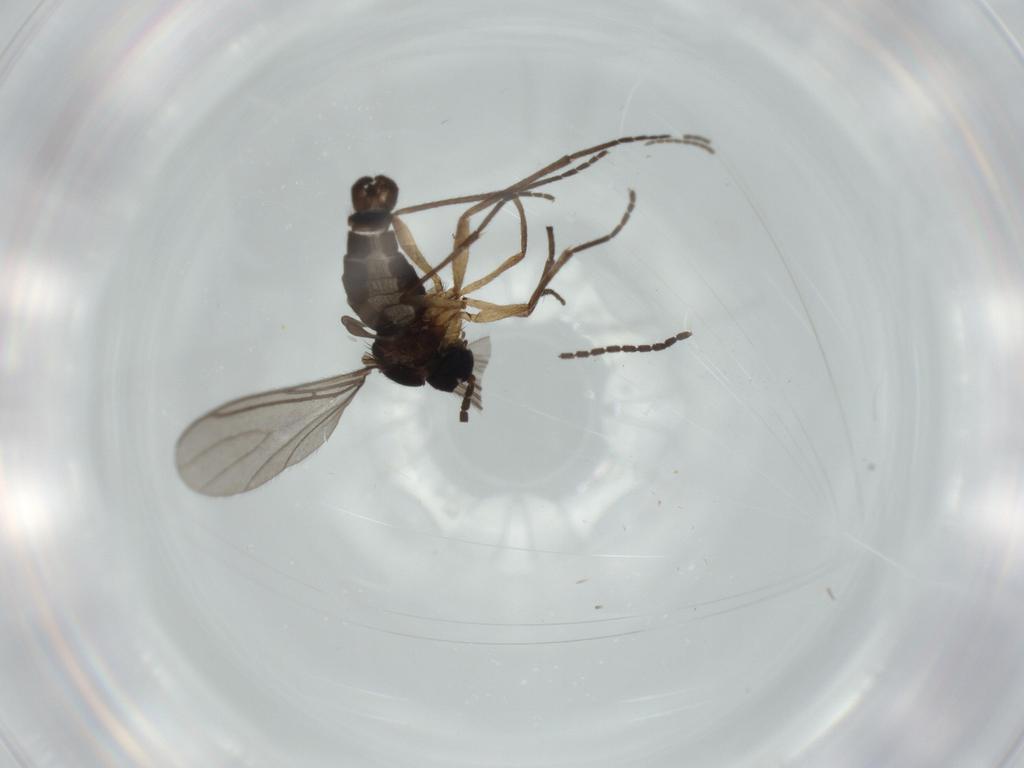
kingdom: Animalia
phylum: Arthropoda
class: Insecta
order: Diptera
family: Sciaridae
